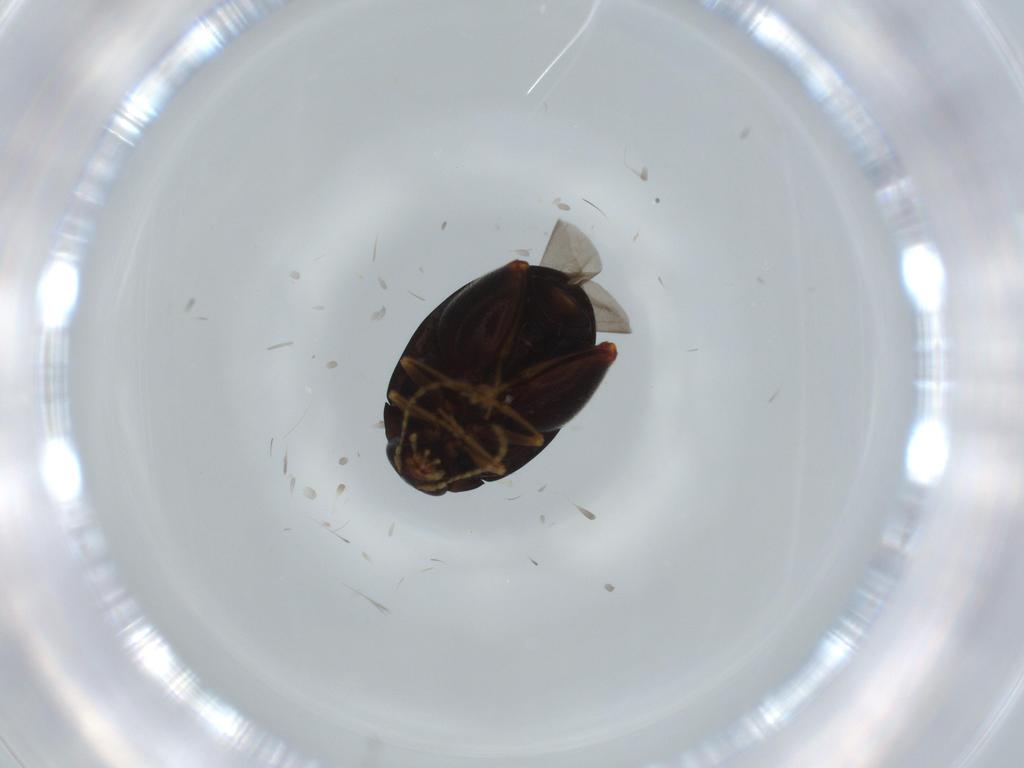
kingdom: Animalia
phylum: Arthropoda
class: Insecta
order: Coleoptera
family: Chrysomelidae
